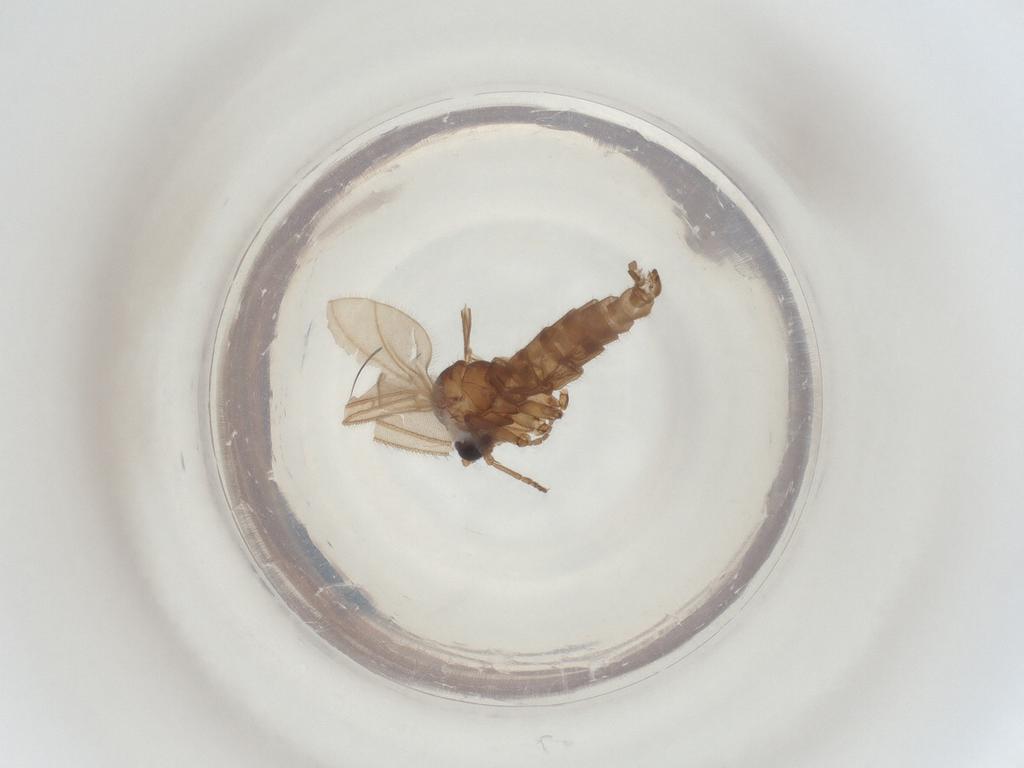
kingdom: Animalia
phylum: Arthropoda
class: Insecta
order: Diptera
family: Sciaridae
